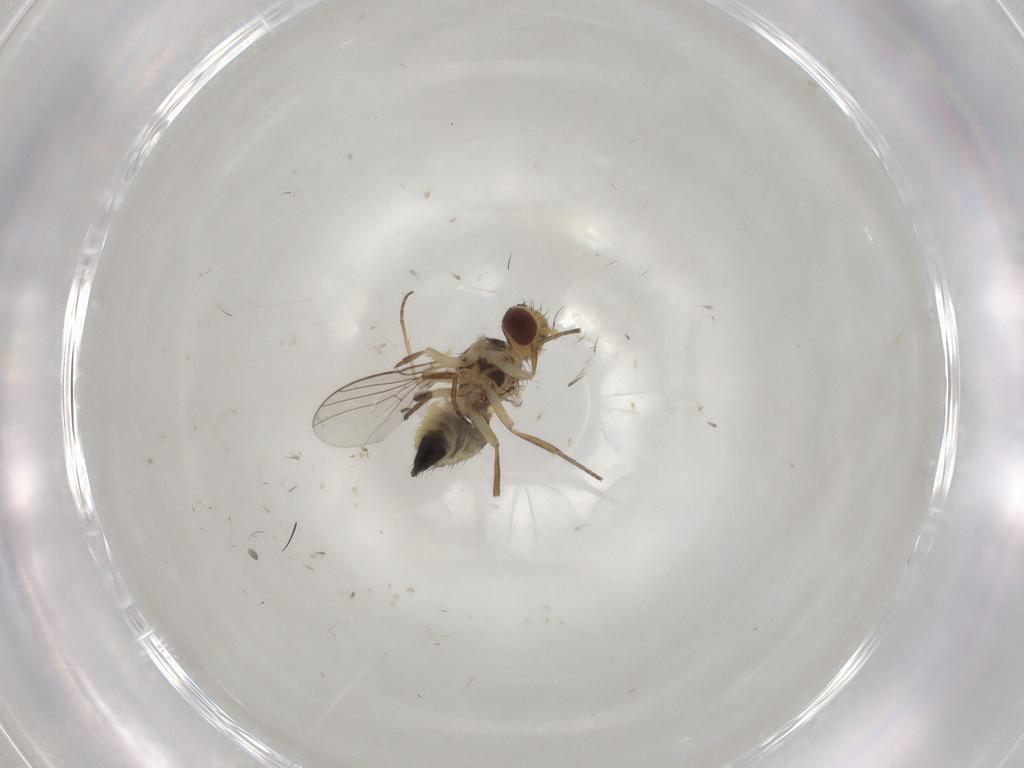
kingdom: Animalia
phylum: Arthropoda
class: Insecta
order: Diptera
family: Agromyzidae
